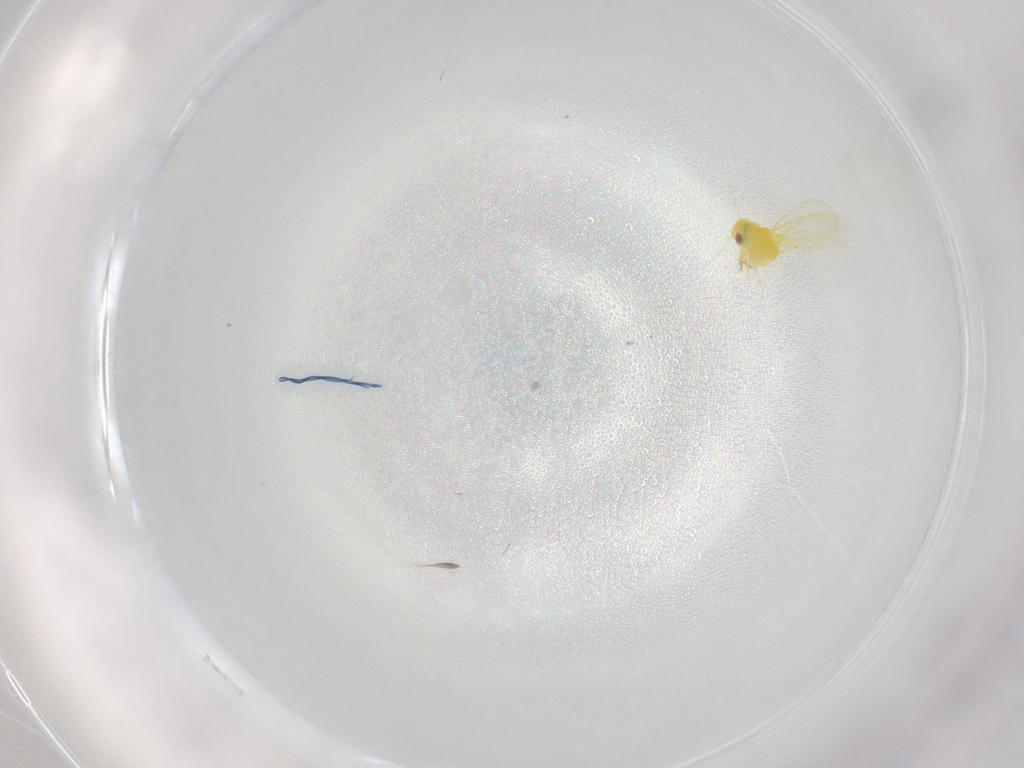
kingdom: Animalia
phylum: Arthropoda
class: Insecta
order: Hemiptera
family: Aleyrodidae
